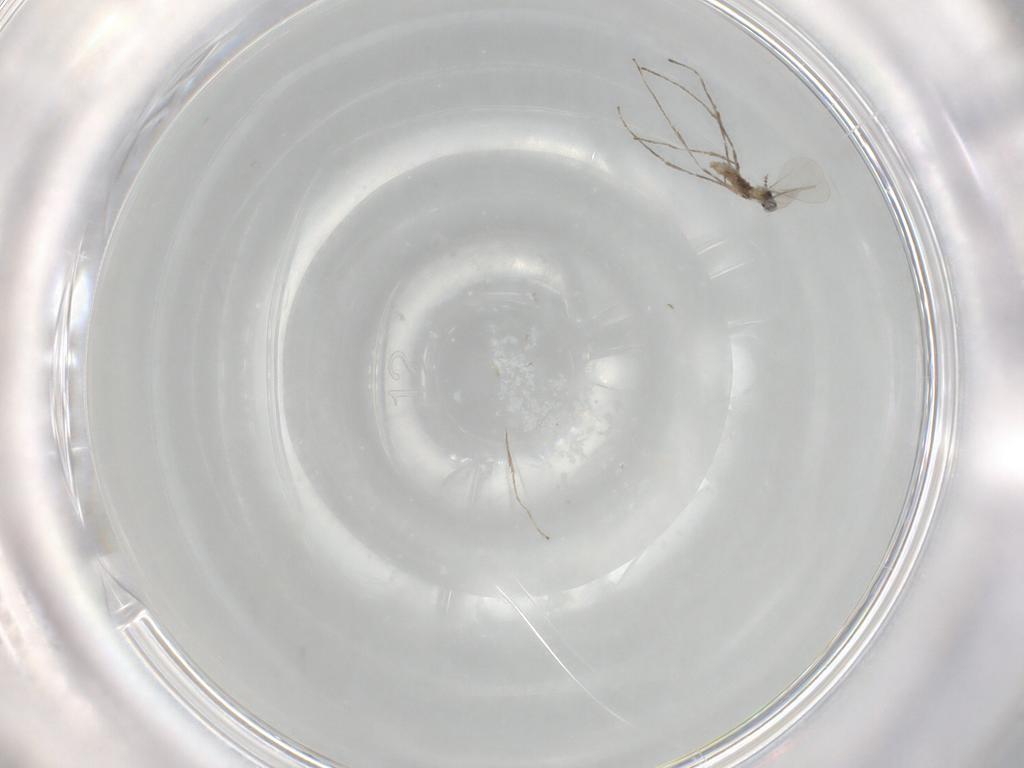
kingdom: Animalia
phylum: Arthropoda
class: Insecta
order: Diptera
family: Cecidomyiidae
